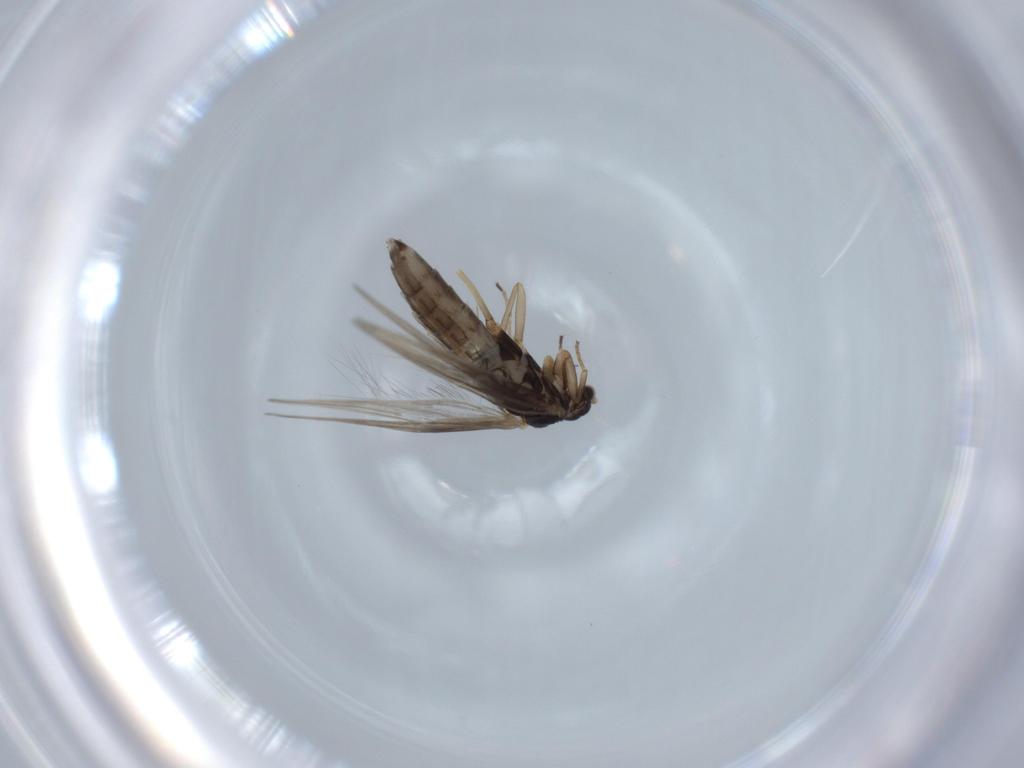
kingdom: Animalia
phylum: Arthropoda
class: Insecta
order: Trichoptera
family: Hydroptilidae
